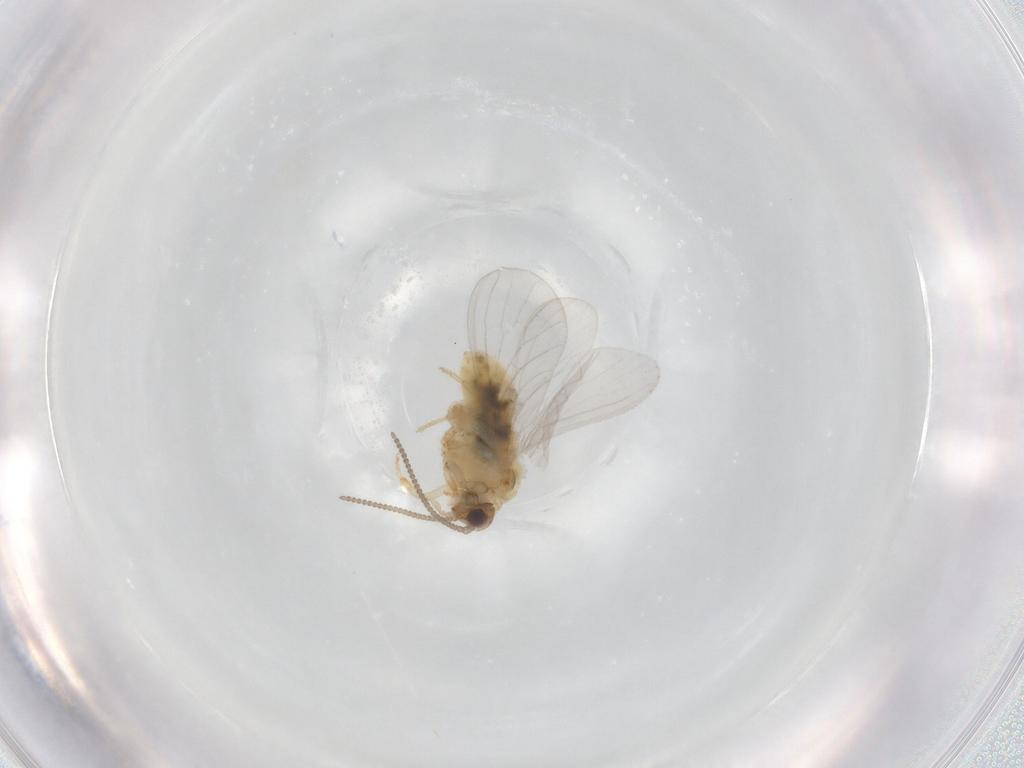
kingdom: Animalia
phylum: Arthropoda
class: Insecta
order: Neuroptera
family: Coniopterygidae
